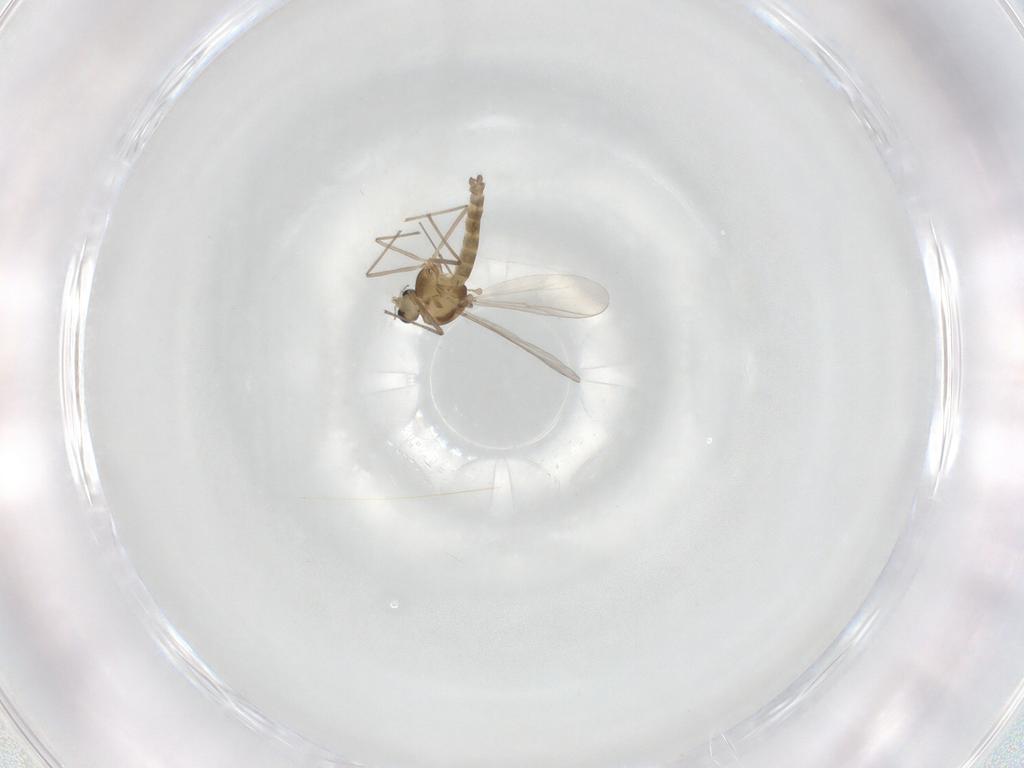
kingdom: Animalia
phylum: Arthropoda
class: Insecta
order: Diptera
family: Chironomidae
